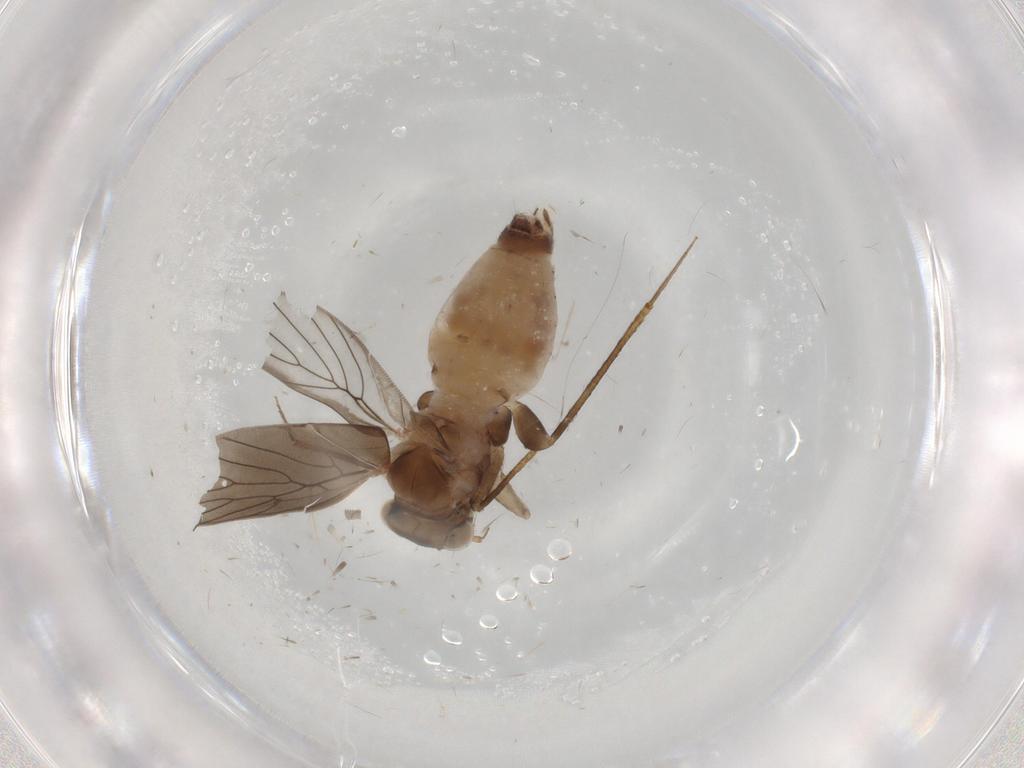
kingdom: Animalia
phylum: Arthropoda
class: Insecta
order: Psocodea
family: Lepidopsocidae
